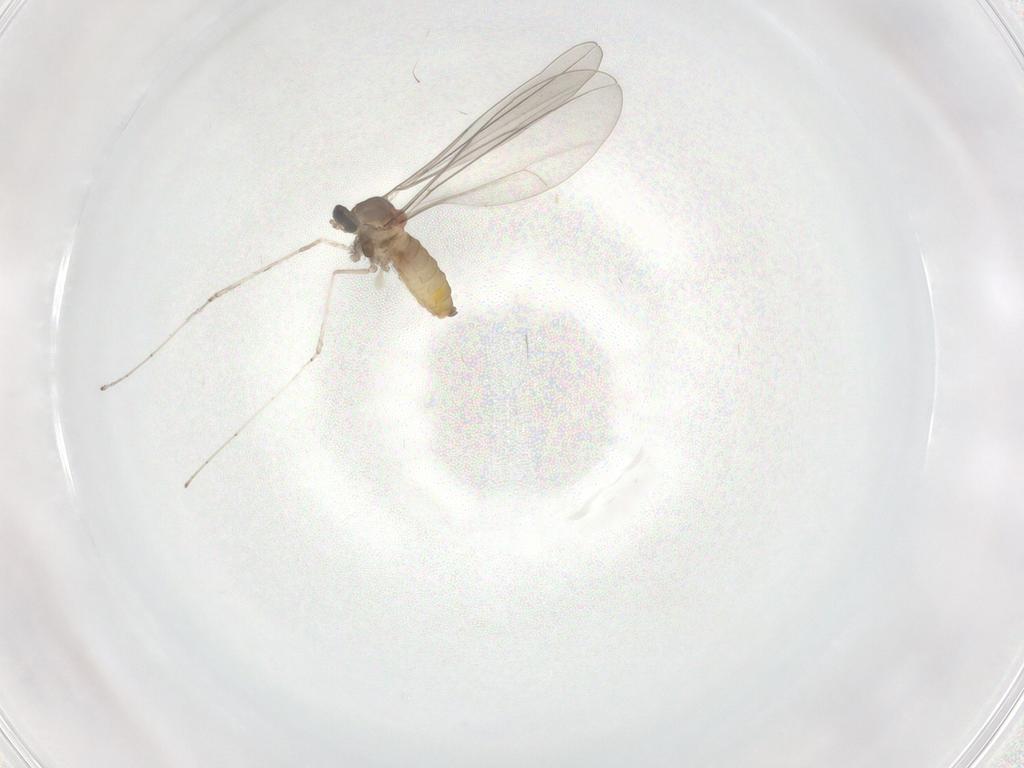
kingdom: Animalia
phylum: Arthropoda
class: Insecta
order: Diptera
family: Cecidomyiidae
